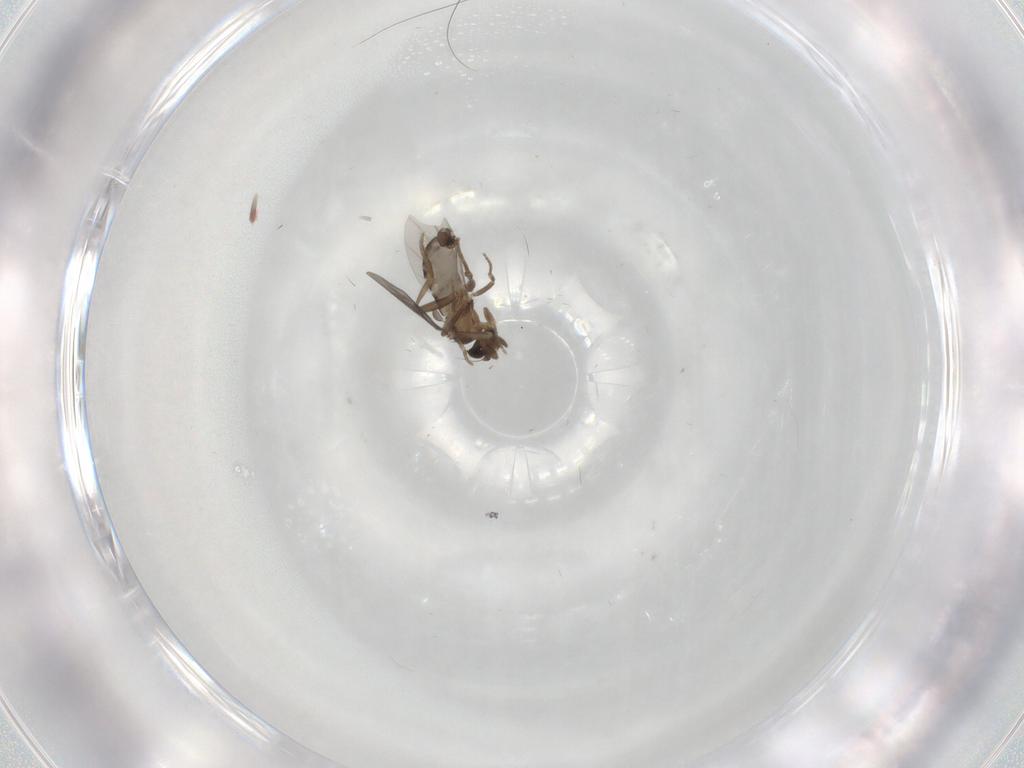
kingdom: Animalia
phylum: Arthropoda
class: Insecta
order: Diptera
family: Phoridae
